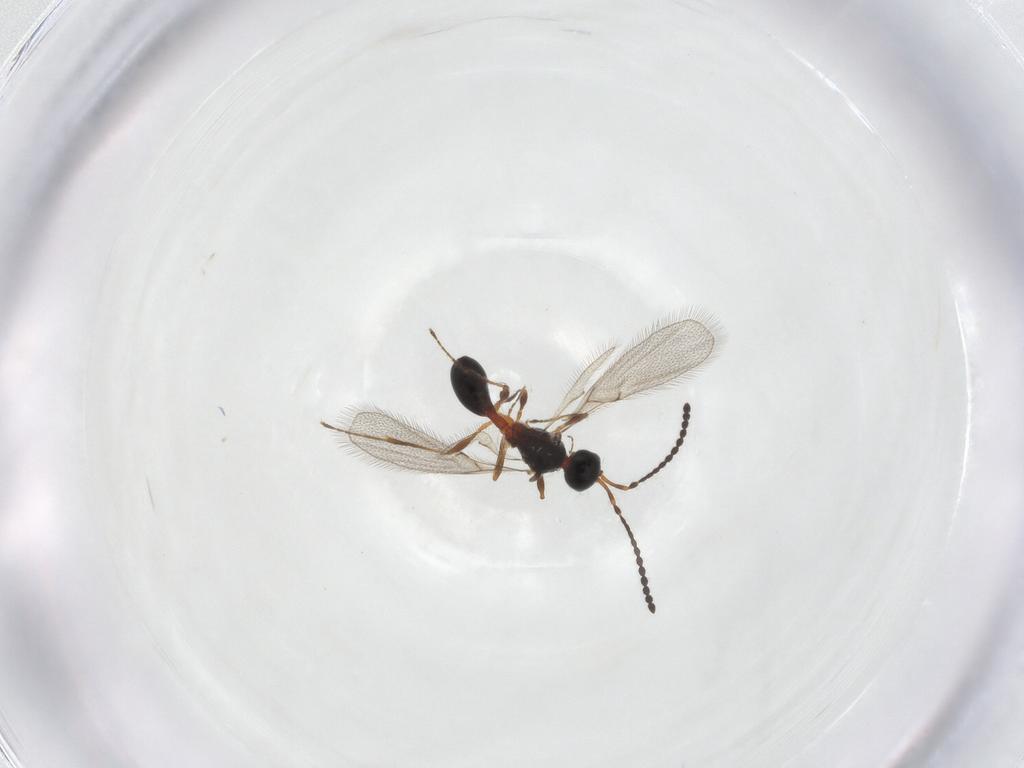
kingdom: Animalia
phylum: Arthropoda
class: Insecta
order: Hymenoptera
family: Diapriidae
